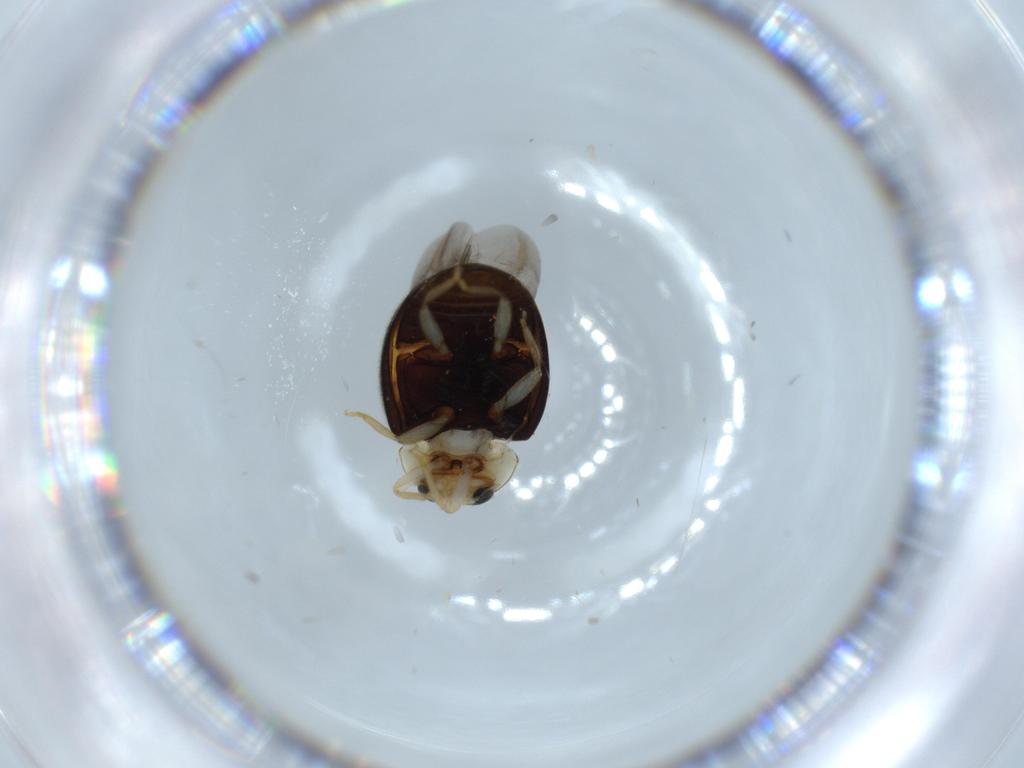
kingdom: Animalia
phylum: Arthropoda
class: Insecta
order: Coleoptera
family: Coccinellidae
